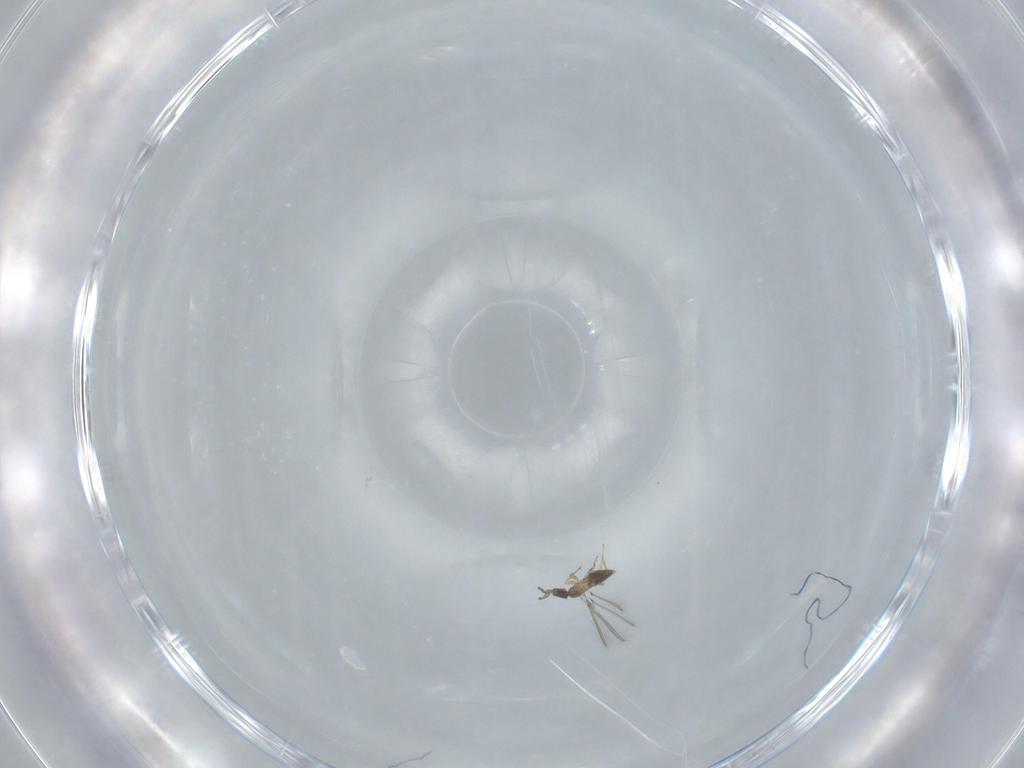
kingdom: Animalia
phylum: Arthropoda
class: Insecta
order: Hymenoptera
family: Mymaridae
